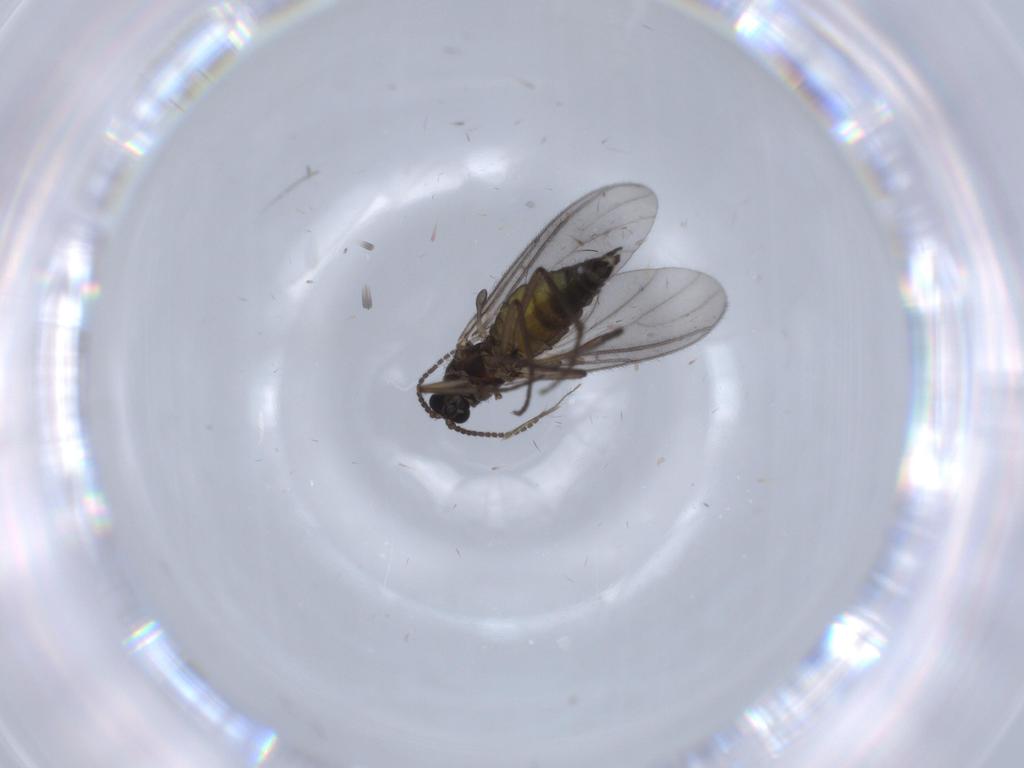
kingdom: Animalia
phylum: Arthropoda
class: Insecta
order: Diptera
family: Sciaridae
